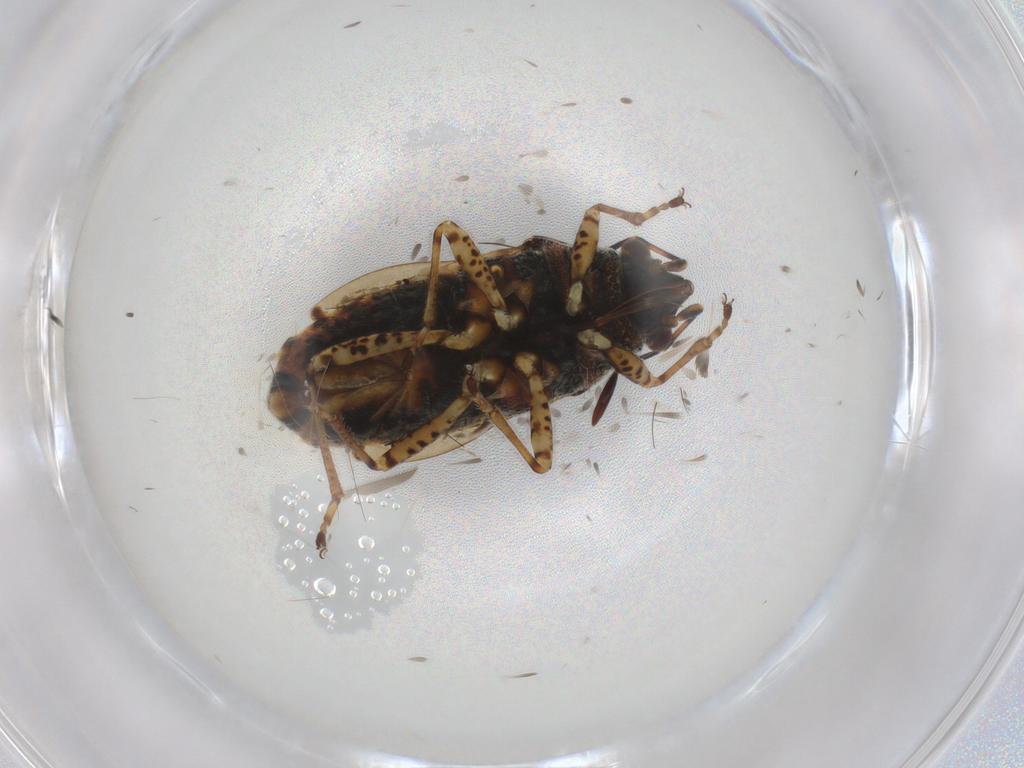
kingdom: Animalia
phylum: Arthropoda
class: Insecta
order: Hemiptera
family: Lygaeidae
